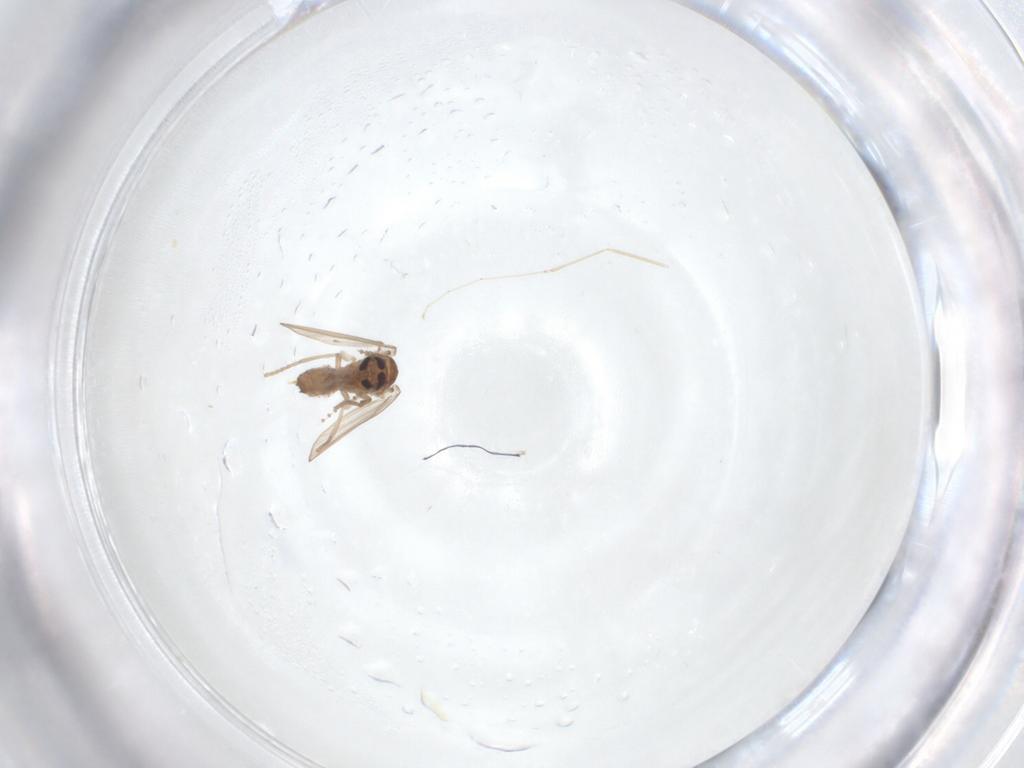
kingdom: Animalia
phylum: Arthropoda
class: Insecta
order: Diptera
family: Psychodidae
